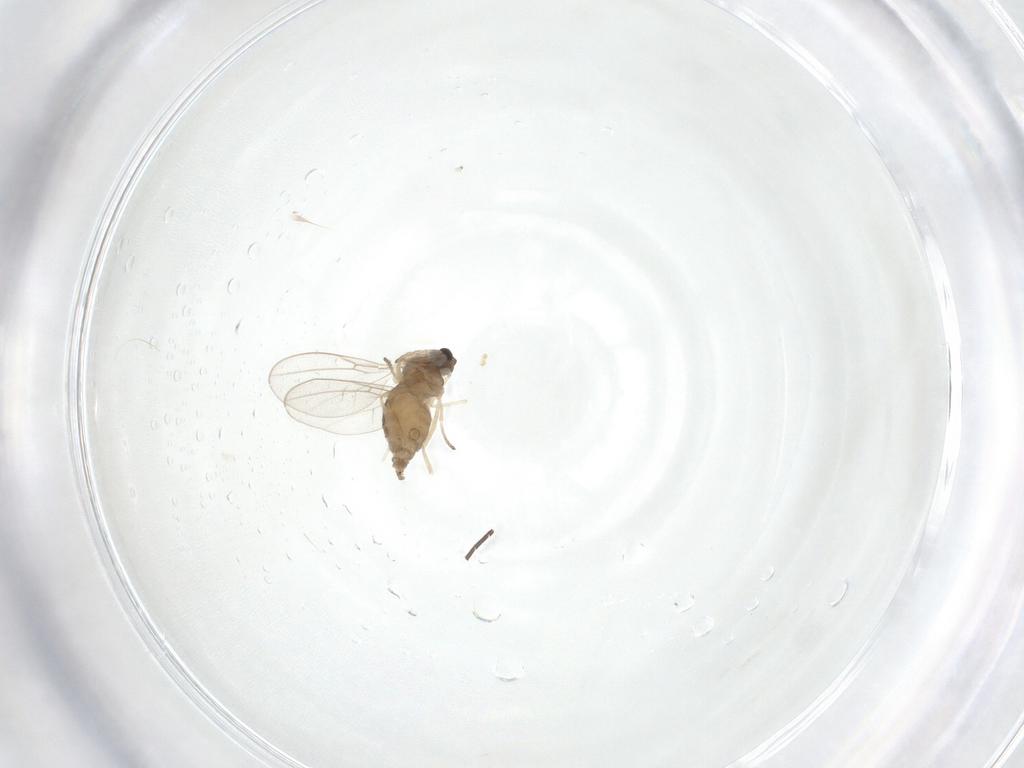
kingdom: Animalia
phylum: Arthropoda
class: Insecta
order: Diptera
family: Cecidomyiidae
